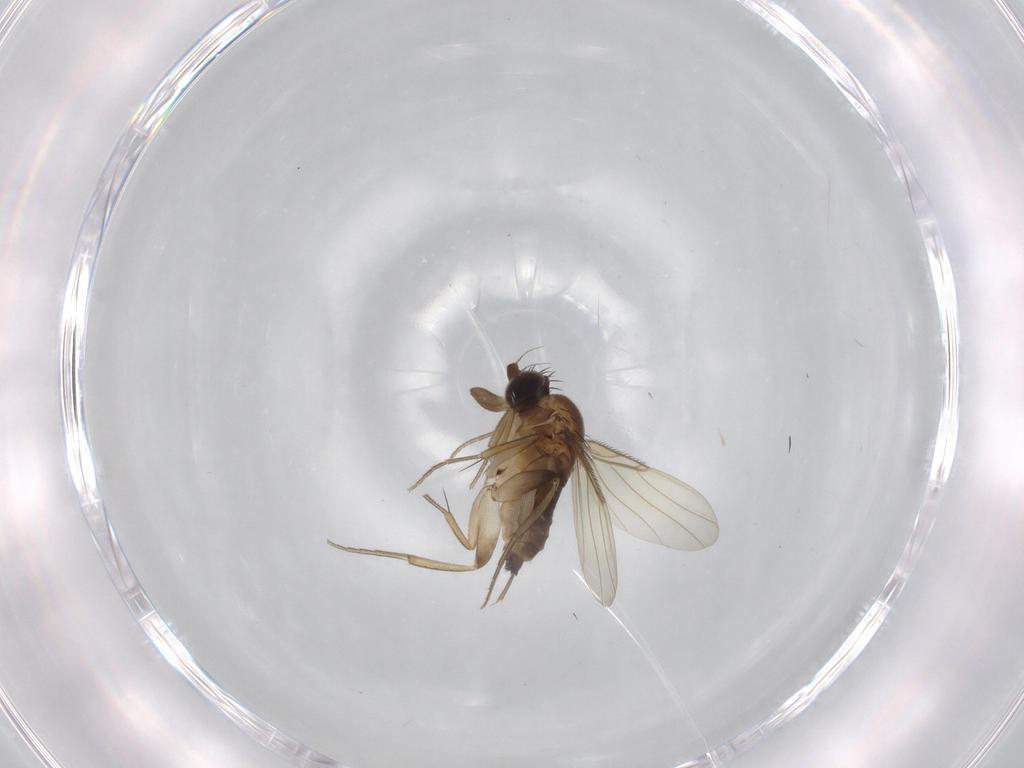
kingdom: Animalia
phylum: Arthropoda
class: Insecta
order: Diptera
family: Phoridae
